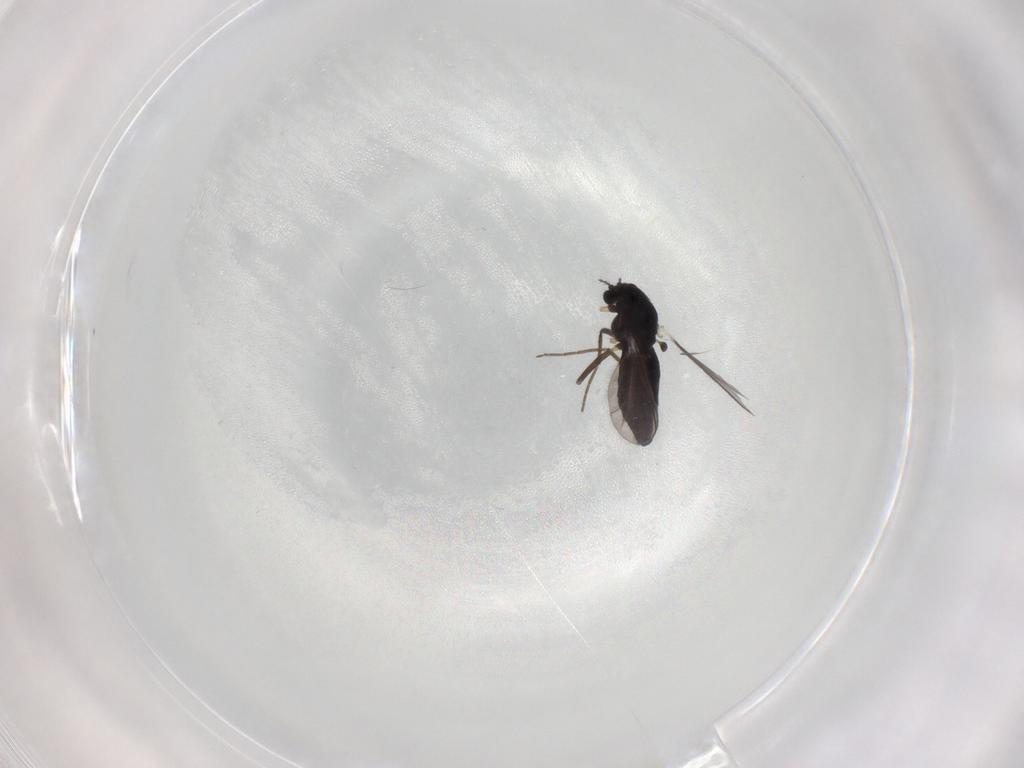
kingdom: Animalia
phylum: Arthropoda
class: Insecta
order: Diptera
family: Chironomidae
